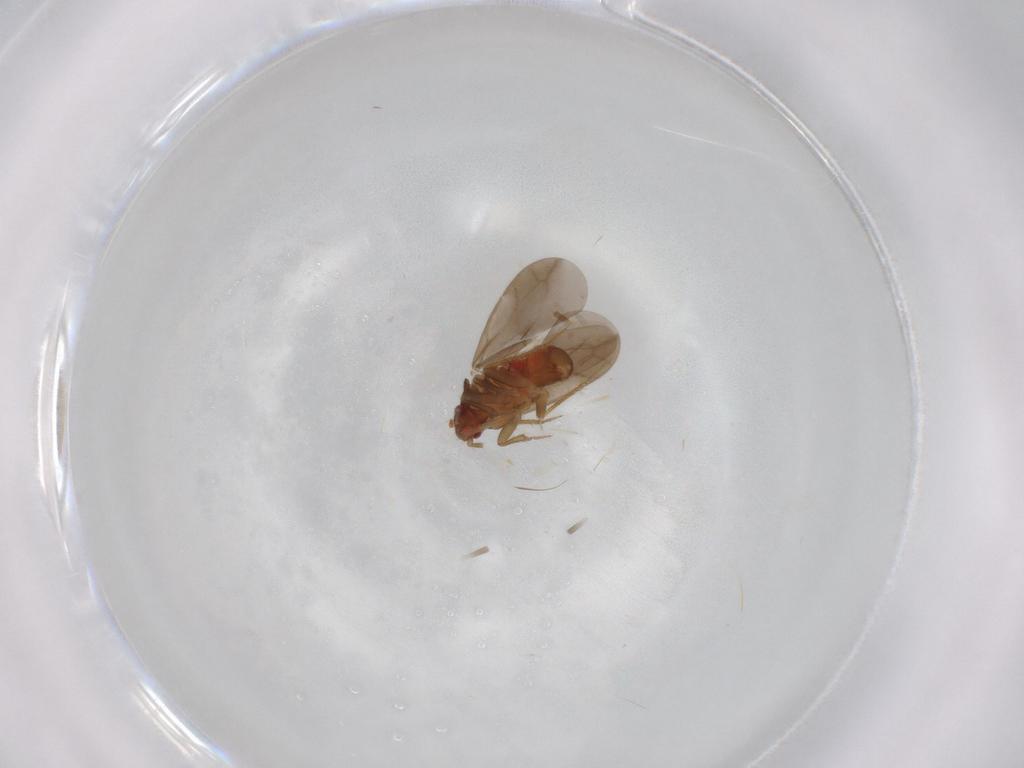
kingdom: Animalia
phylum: Arthropoda
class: Insecta
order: Hemiptera
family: Ceratocombidae
